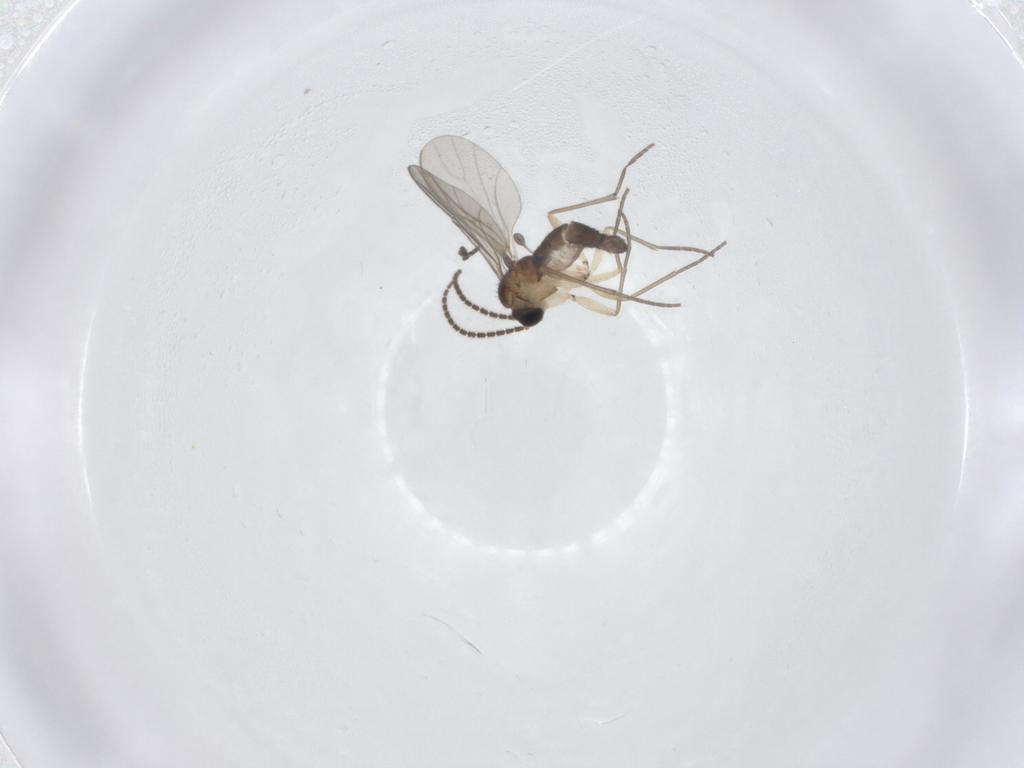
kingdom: Animalia
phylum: Arthropoda
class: Insecta
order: Diptera
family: Sciaridae
